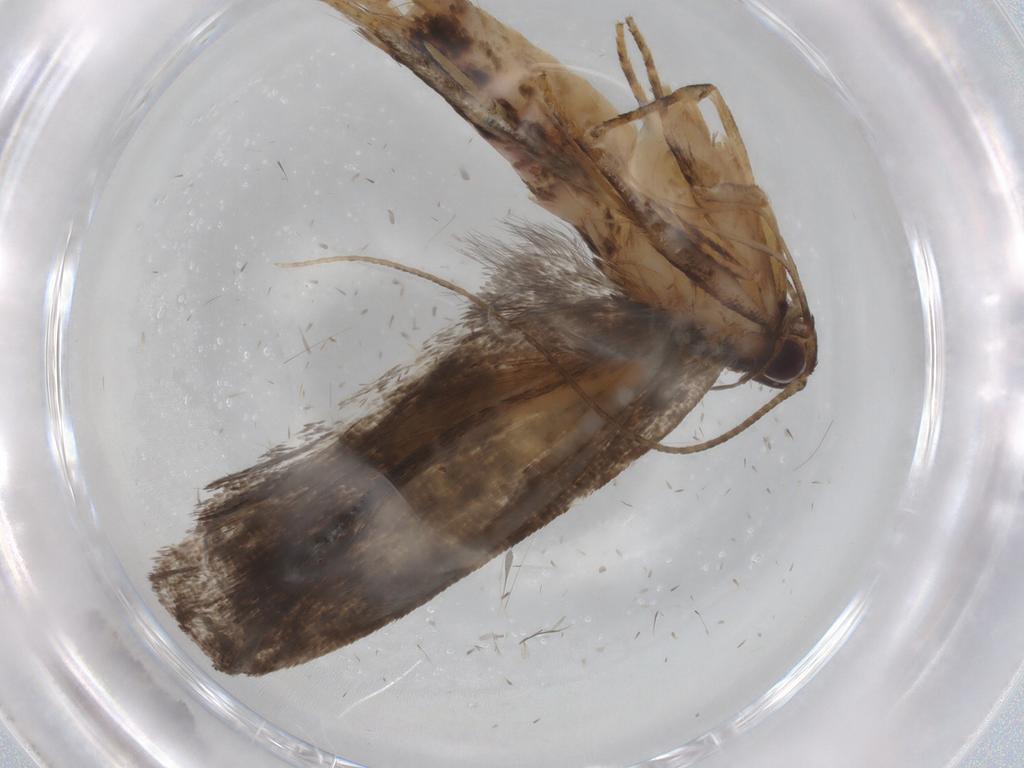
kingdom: Animalia
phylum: Arthropoda
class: Insecta
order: Lepidoptera
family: Gelechiidae
